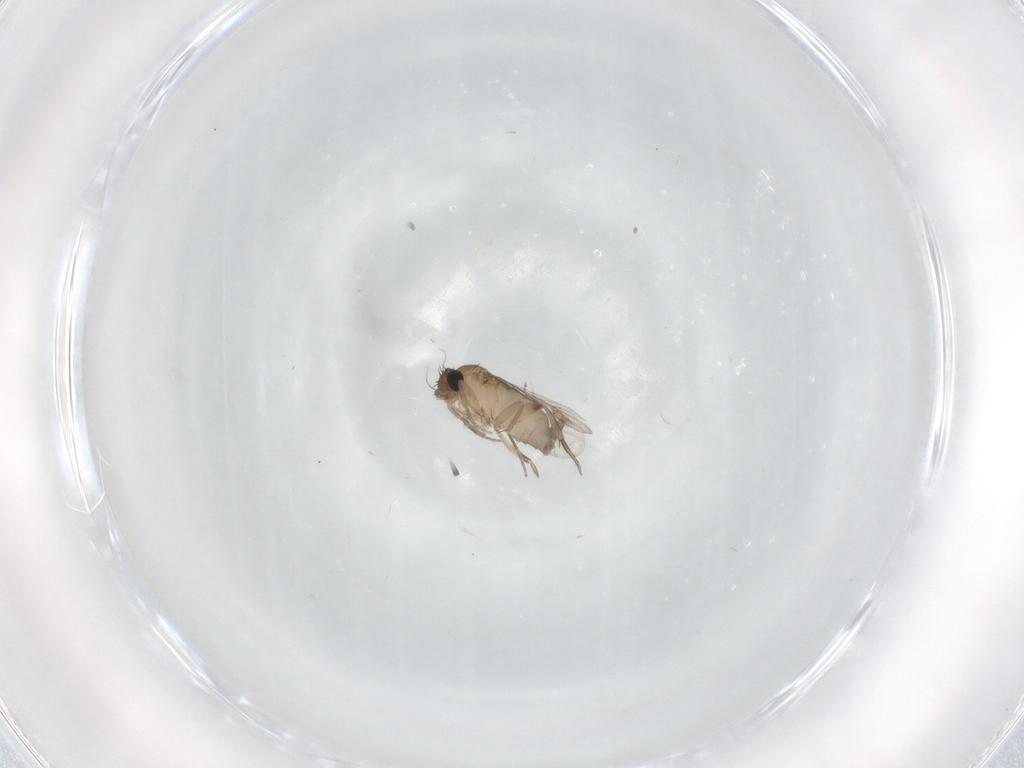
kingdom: Animalia
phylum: Arthropoda
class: Insecta
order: Diptera
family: Phoridae
